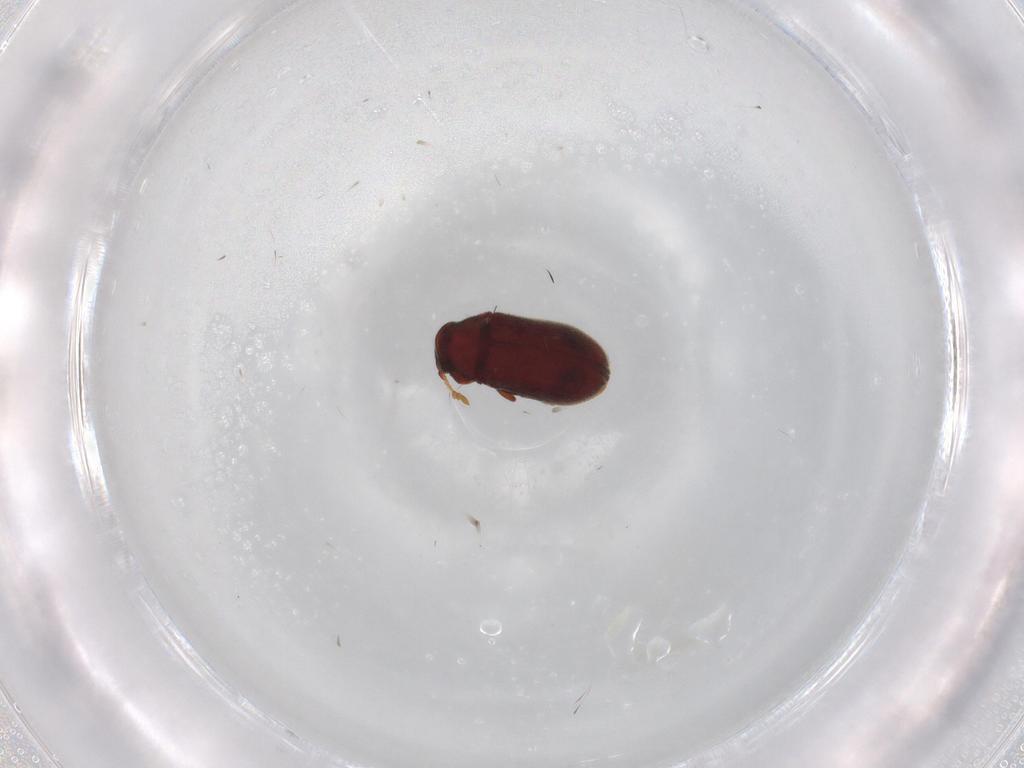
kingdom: Animalia
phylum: Arthropoda
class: Insecta
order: Coleoptera
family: Ptinidae
